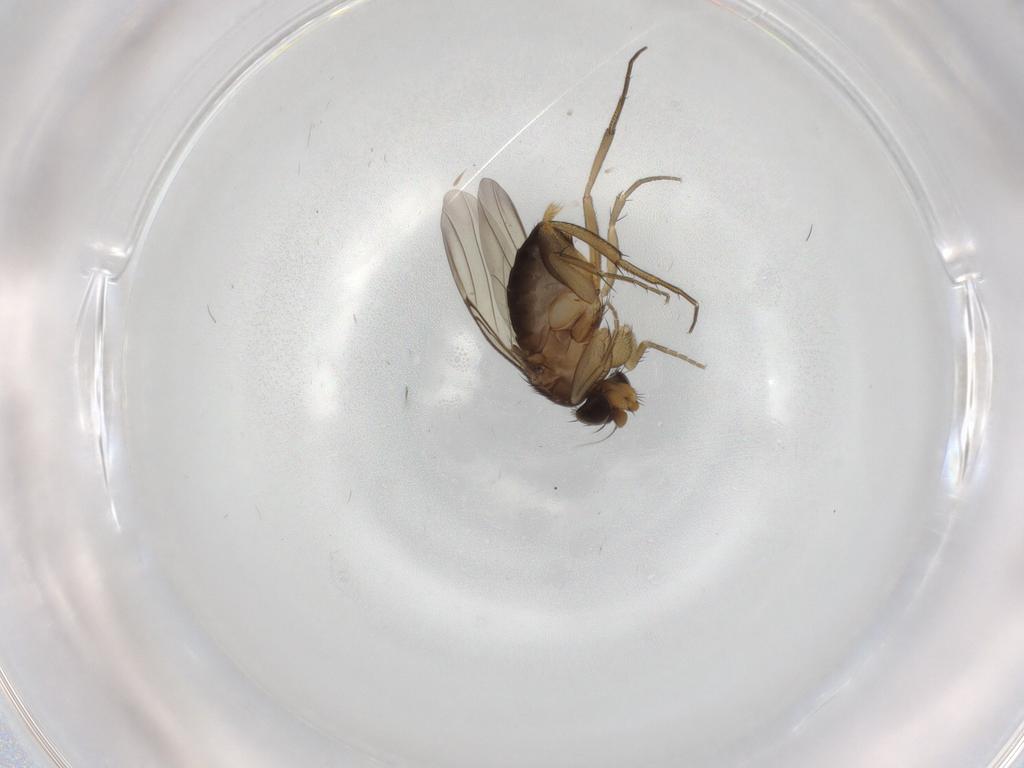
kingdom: Animalia
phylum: Arthropoda
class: Insecta
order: Diptera
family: Phoridae
